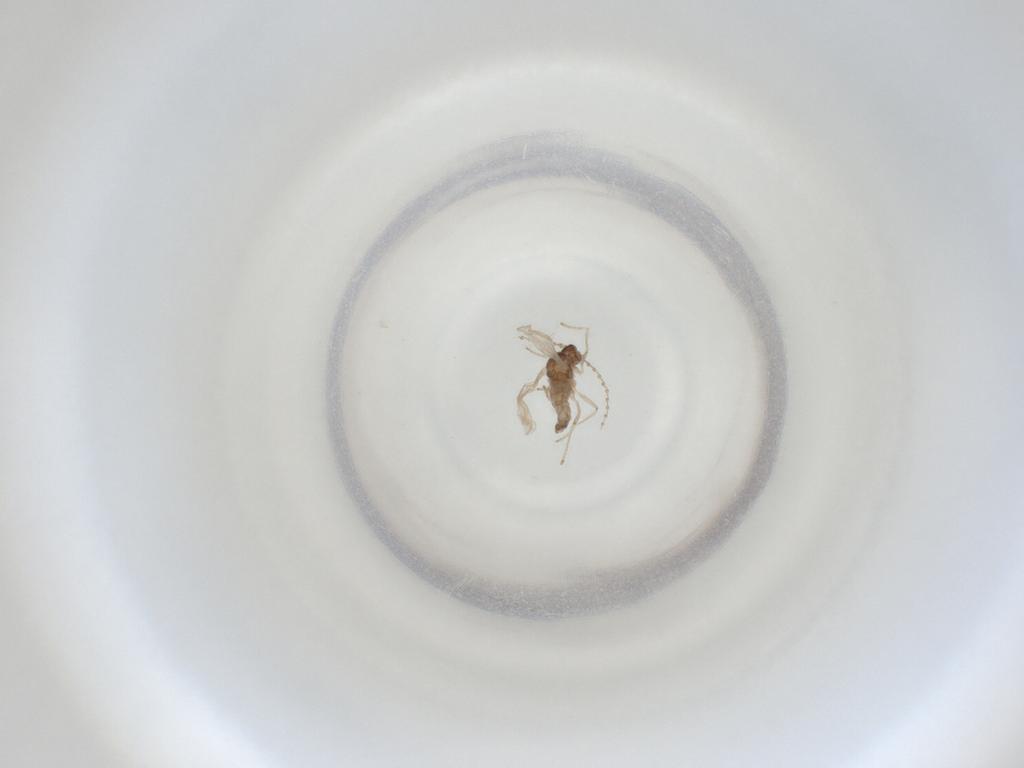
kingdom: Animalia
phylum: Arthropoda
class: Insecta
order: Diptera
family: Cecidomyiidae
